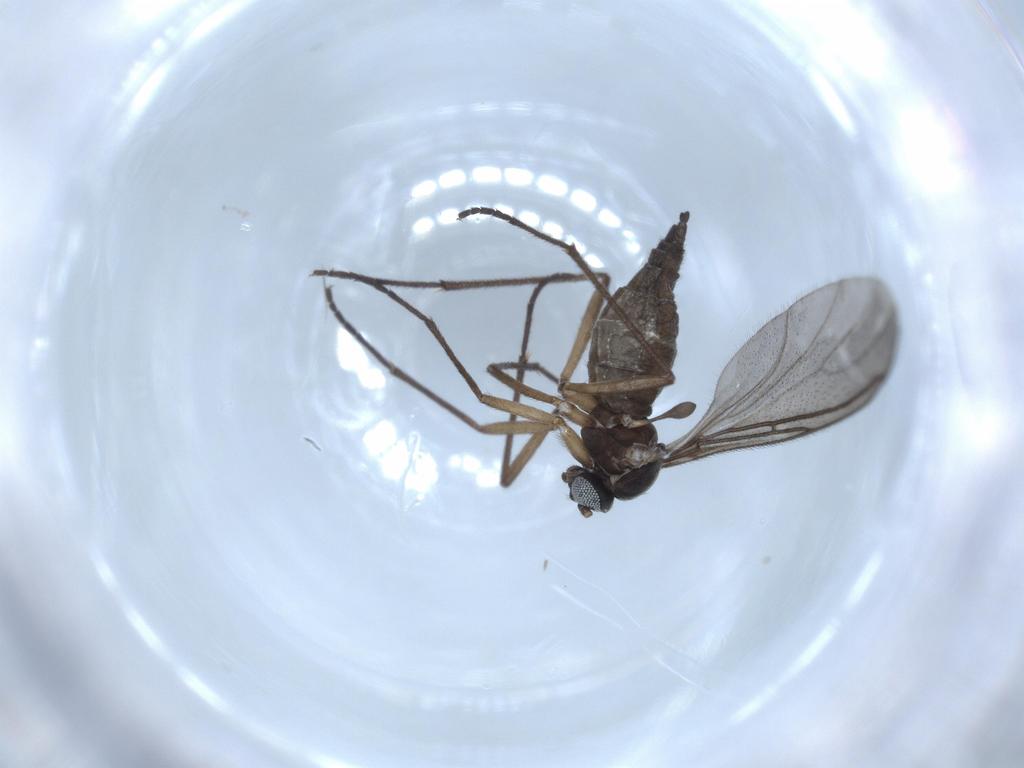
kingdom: Animalia
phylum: Arthropoda
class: Insecta
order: Diptera
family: Sciaridae
